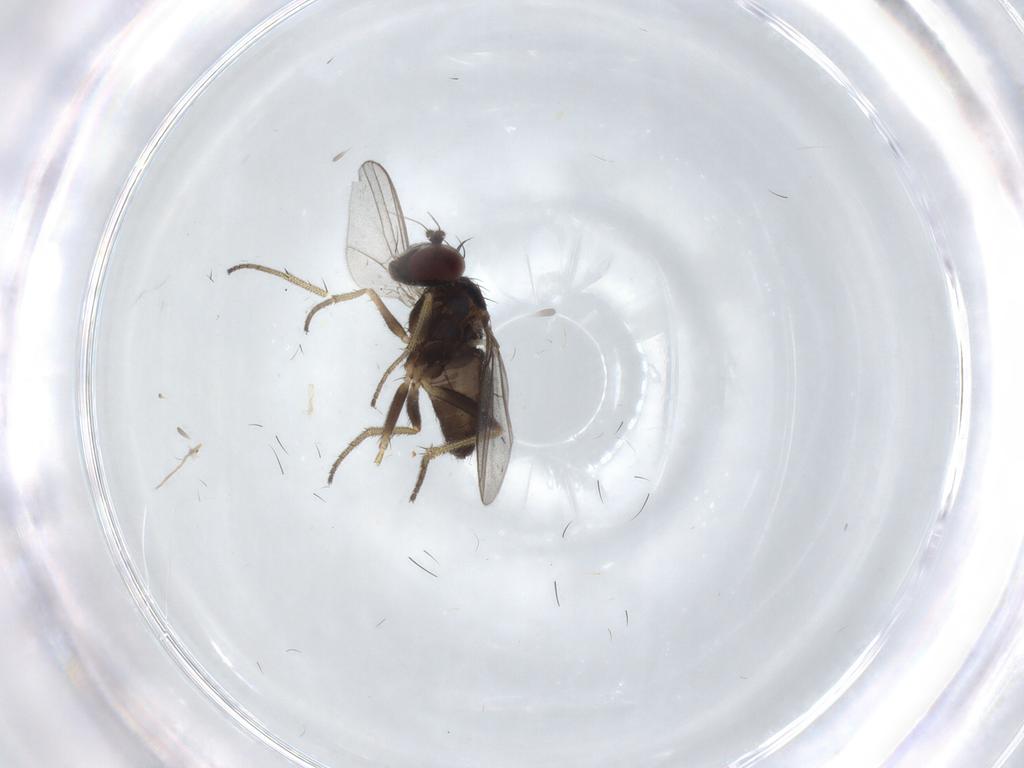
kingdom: Animalia
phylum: Arthropoda
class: Insecta
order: Diptera
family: Dolichopodidae
